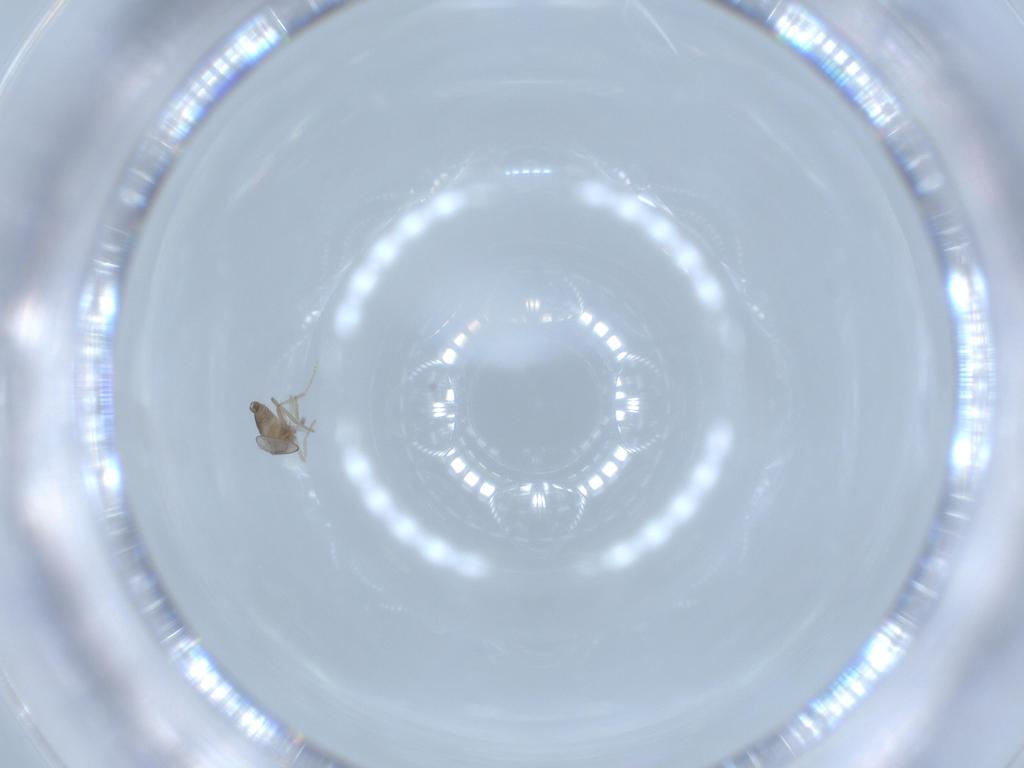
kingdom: Animalia
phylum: Arthropoda
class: Insecta
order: Diptera
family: Cecidomyiidae
